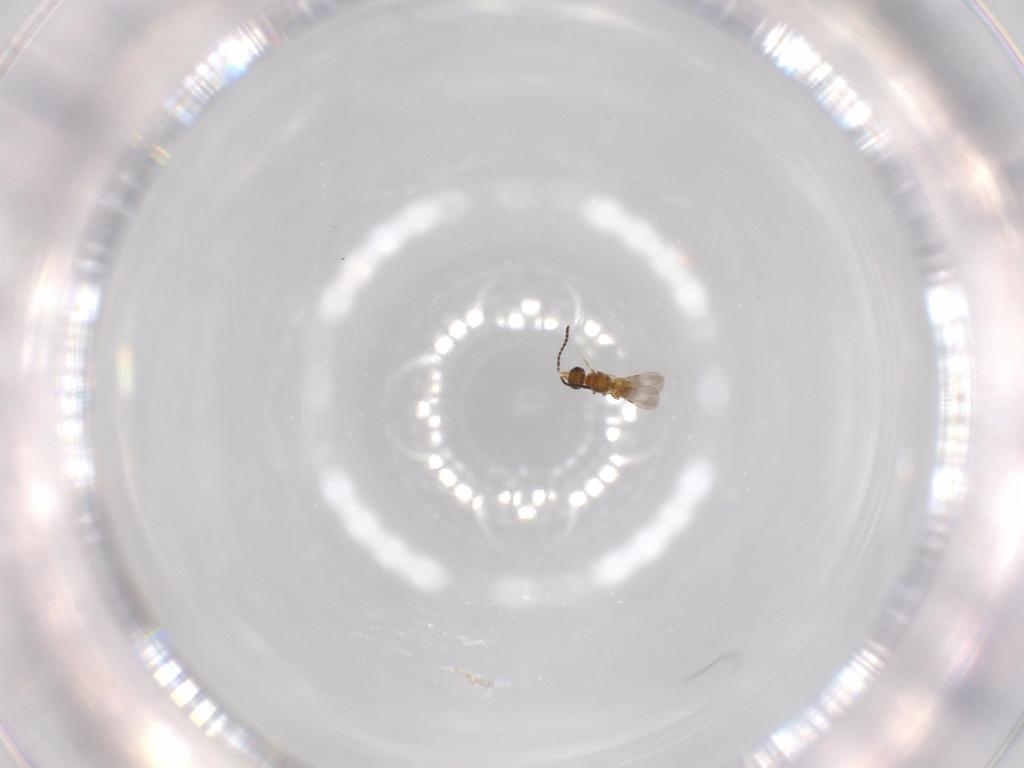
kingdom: Animalia
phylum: Arthropoda
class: Insecta
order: Hymenoptera
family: Ceraphronidae
